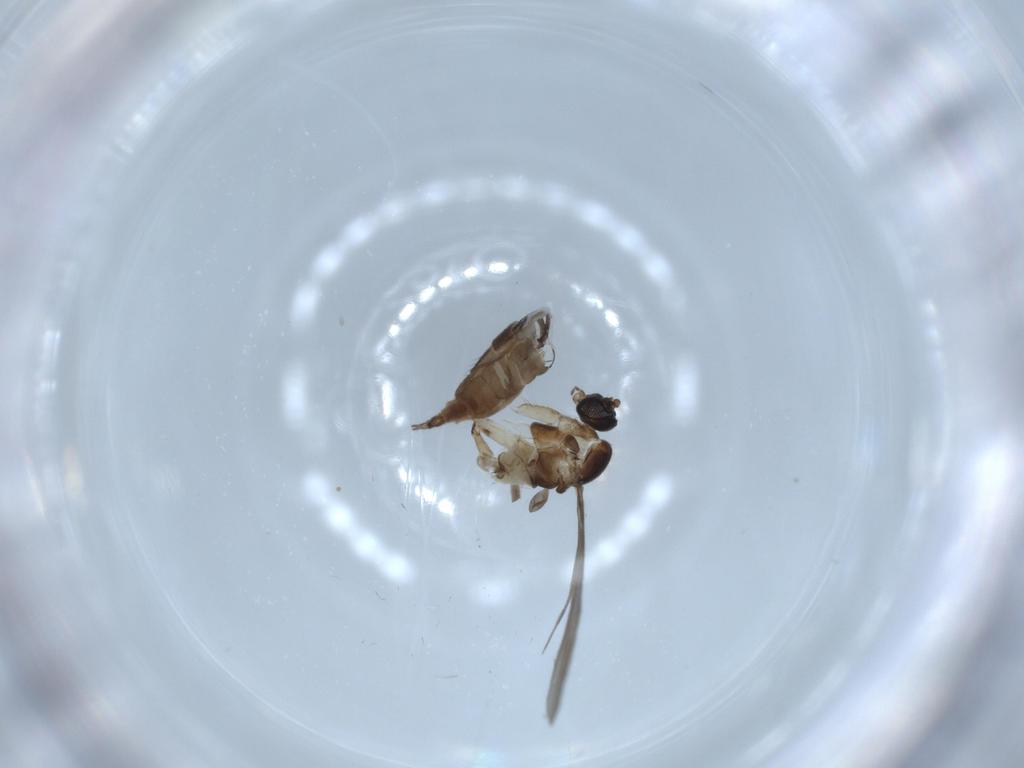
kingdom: Animalia
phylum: Arthropoda
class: Insecta
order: Diptera
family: Sciaridae
